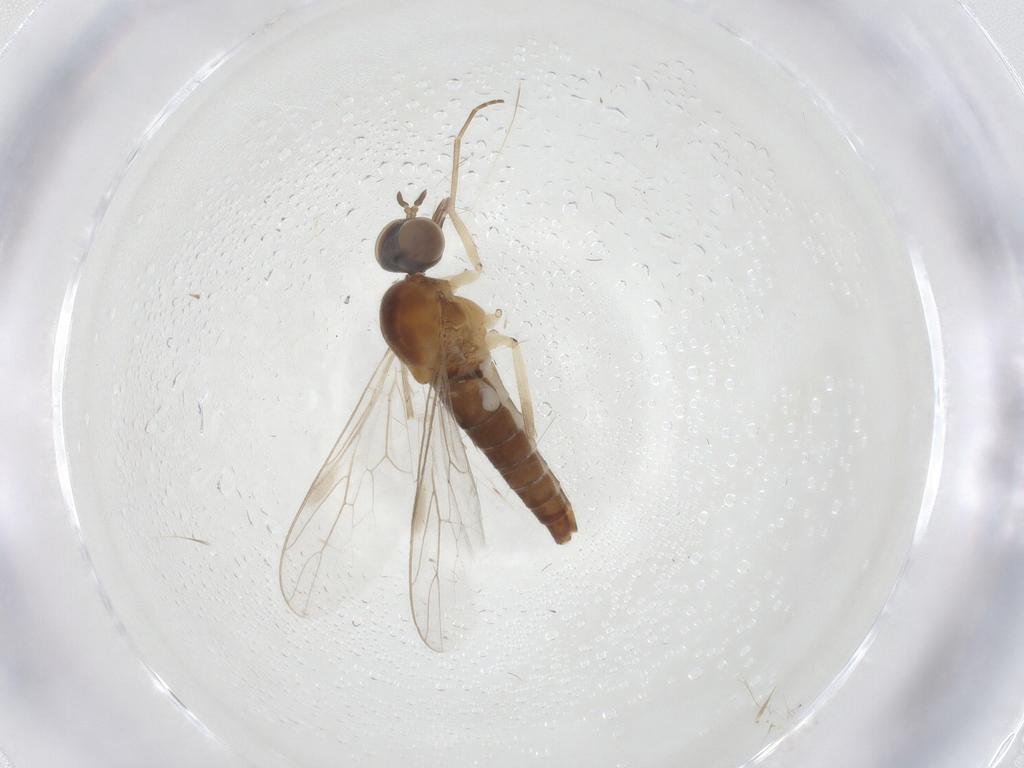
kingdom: Animalia
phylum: Arthropoda
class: Insecta
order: Diptera
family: Scenopinidae
